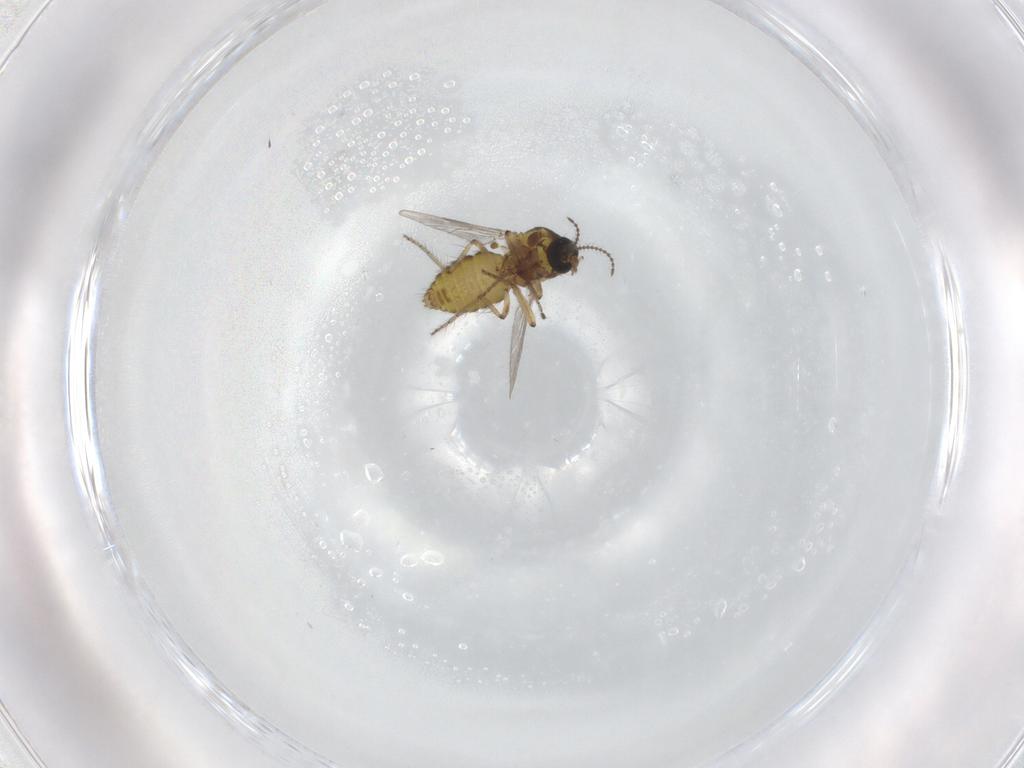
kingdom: Animalia
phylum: Arthropoda
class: Insecta
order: Diptera
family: Ceratopogonidae
